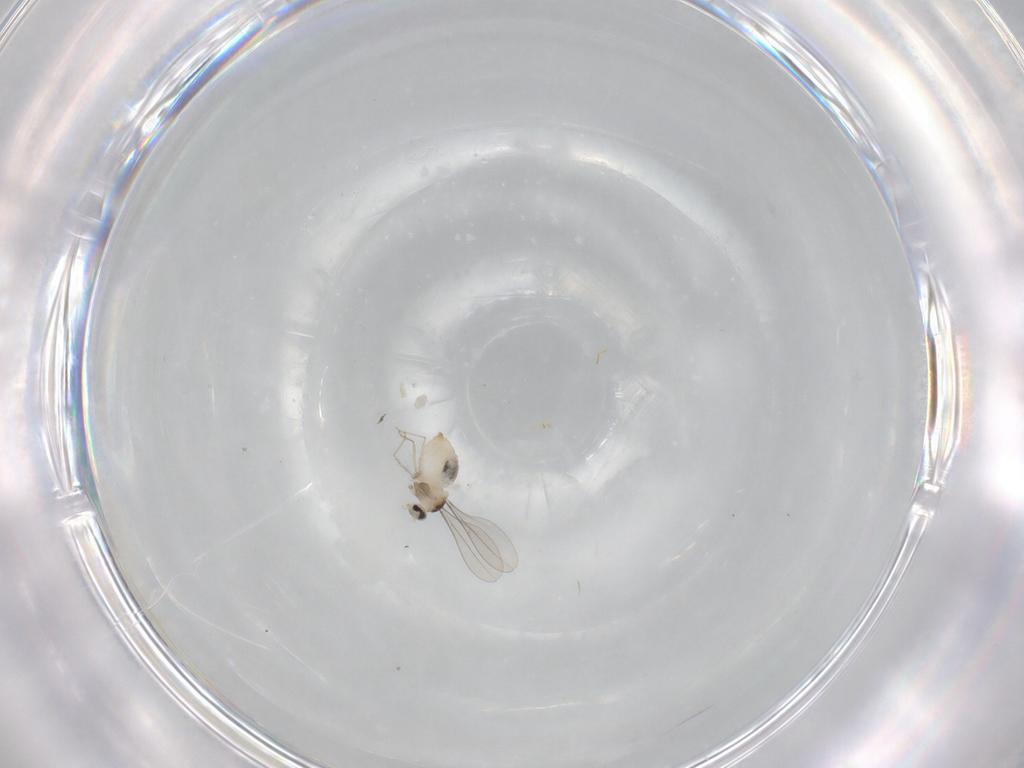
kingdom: Animalia
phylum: Arthropoda
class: Insecta
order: Diptera
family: Cecidomyiidae
